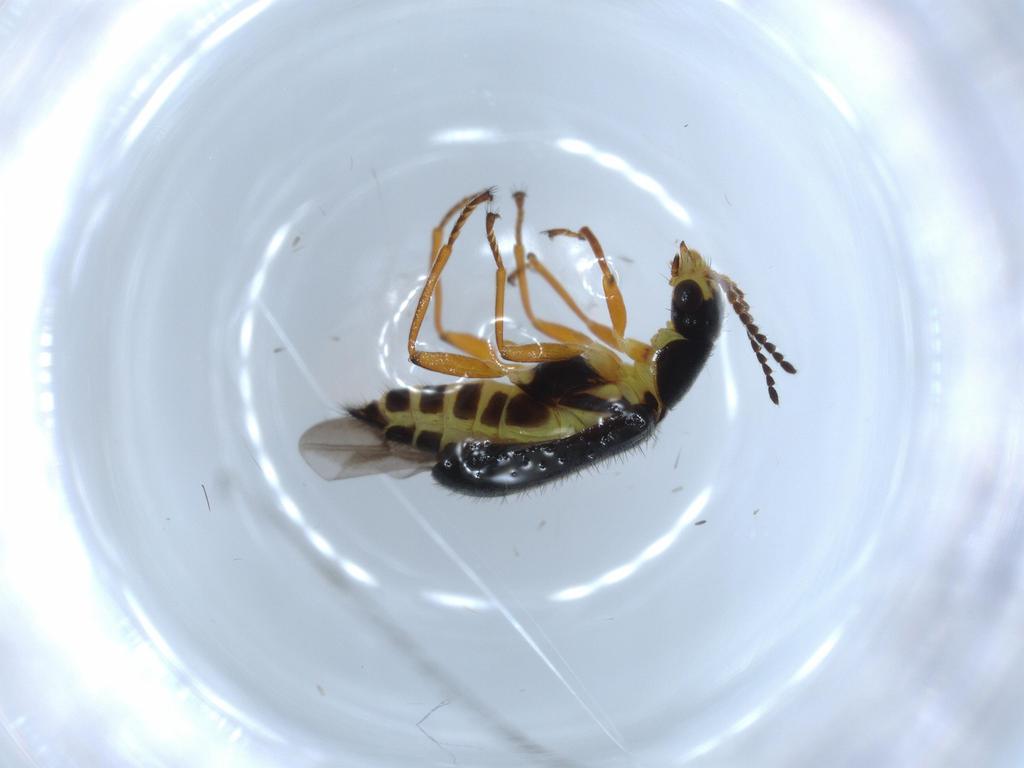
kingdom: Animalia
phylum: Arthropoda
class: Insecta
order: Coleoptera
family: Melyridae
